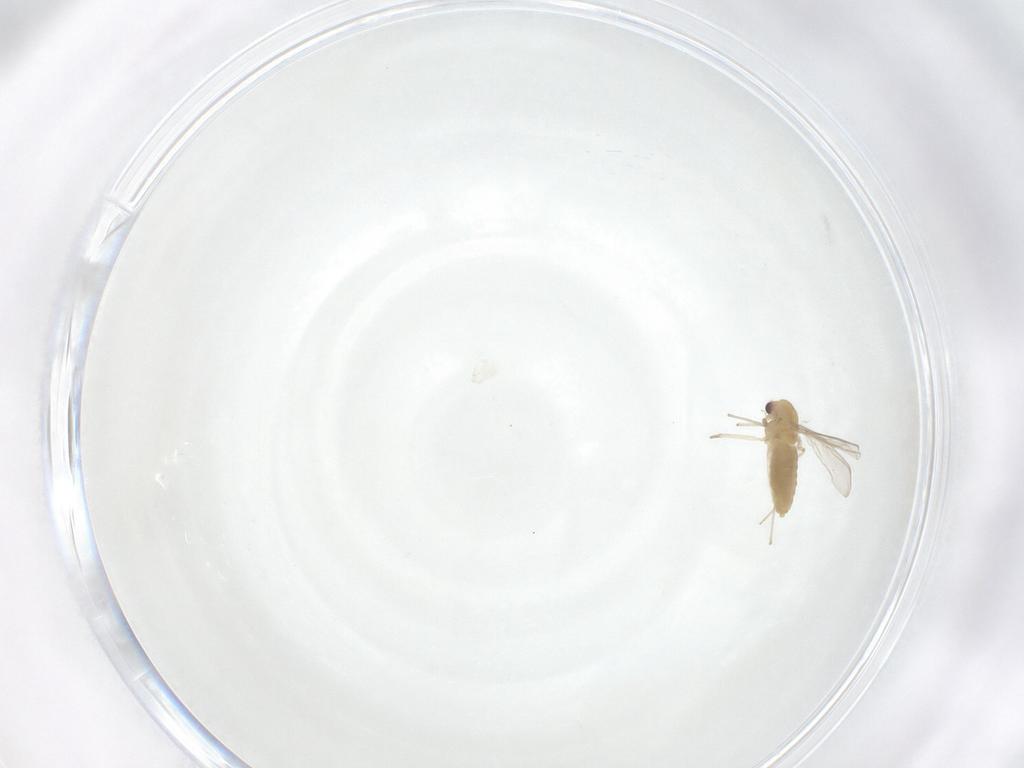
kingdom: Animalia
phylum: Arthropoda
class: Insecta
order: Diptera
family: Chironomidae
